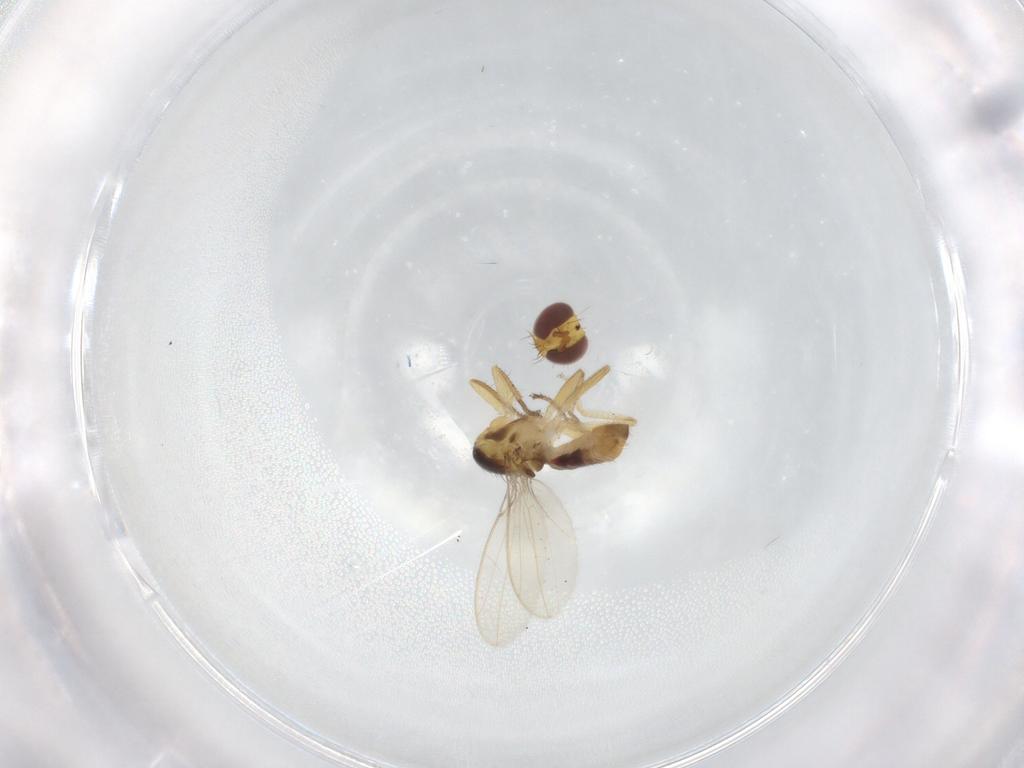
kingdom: Animalia
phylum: Arthropoda
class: Insecta
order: Diptera
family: Periscelididae
